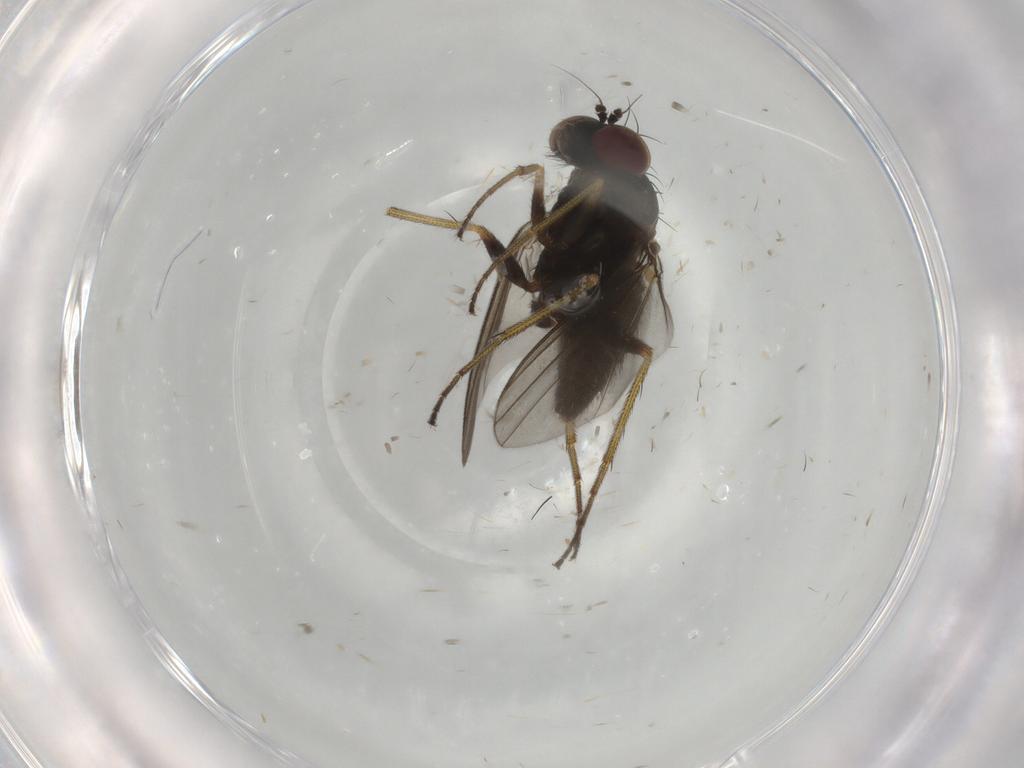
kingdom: Animalia
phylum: Arthropoda
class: Insecta
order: Diptera
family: Dolichopodidae
